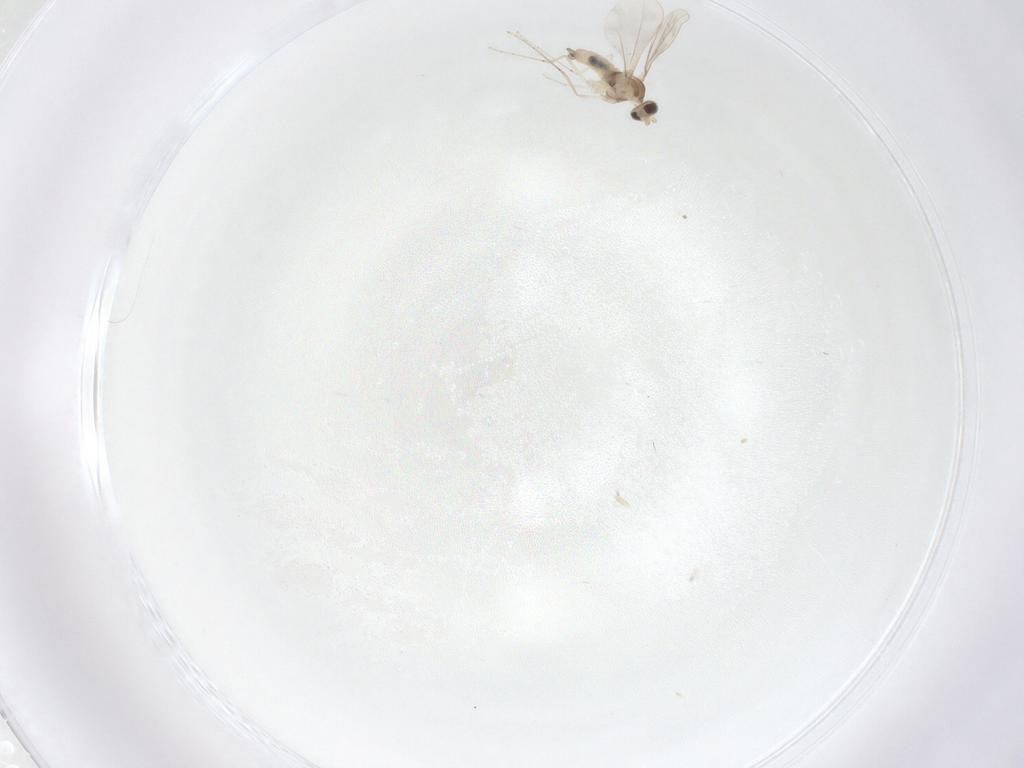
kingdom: Animalia
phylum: Arthropoda
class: Insecta
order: Diptera
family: Cecidomyiidae
